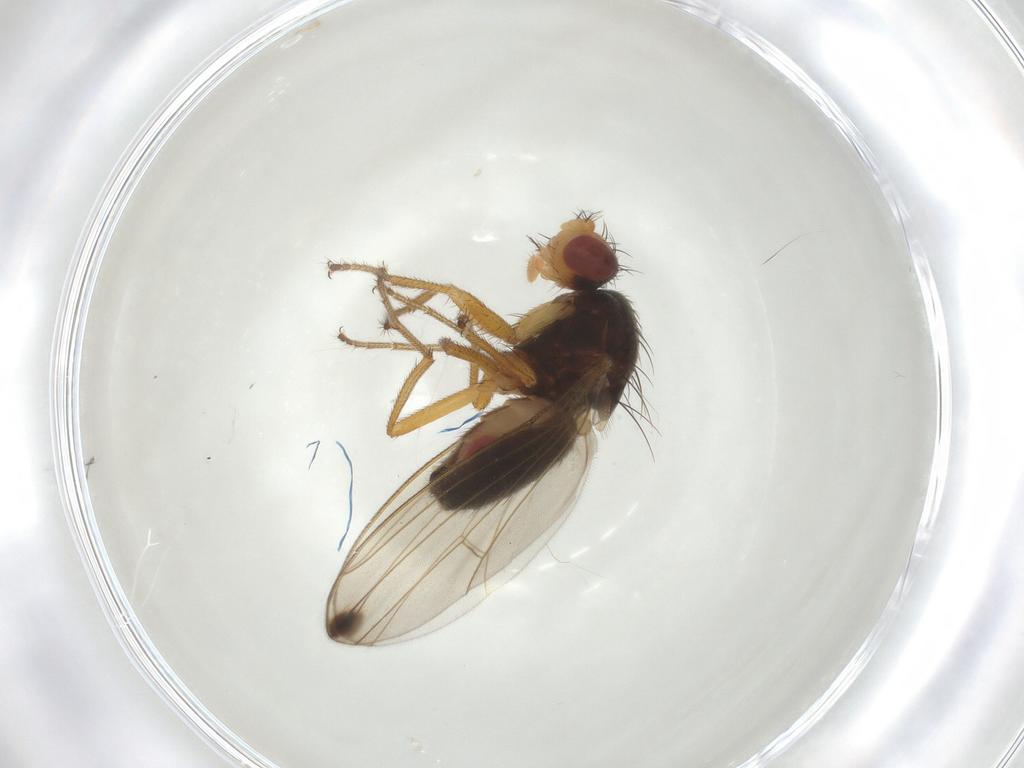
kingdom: Animalia
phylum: Arthropoda
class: Insecta
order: Diptera
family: Drosophilidae
